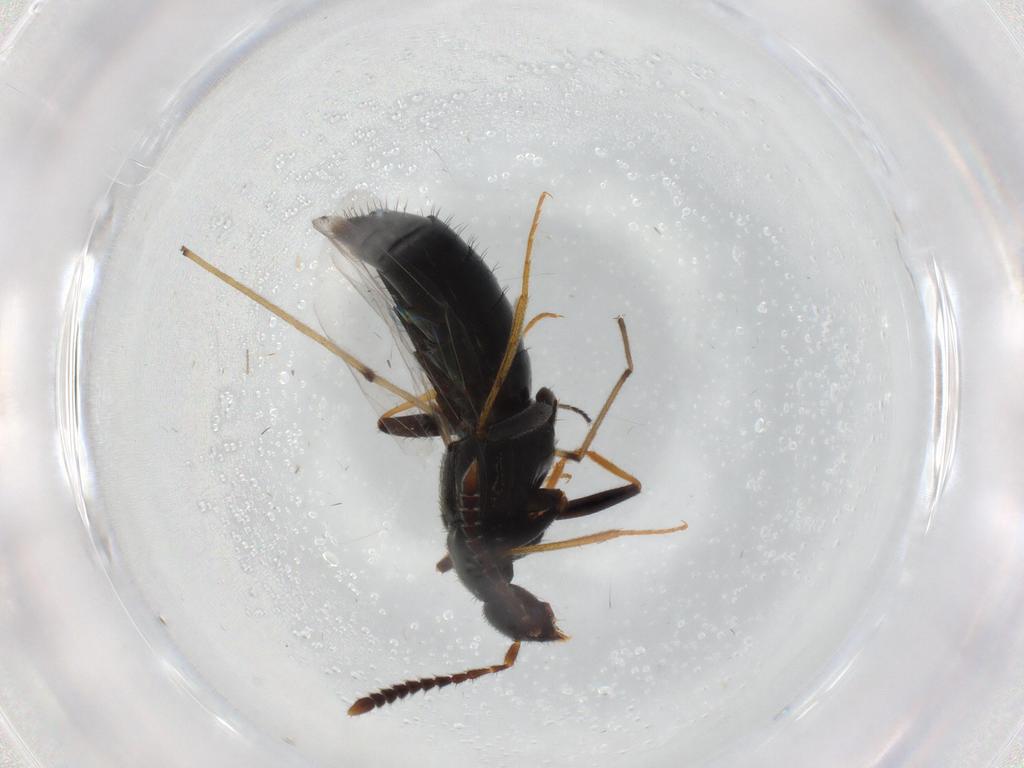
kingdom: Animalia
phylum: Arthropoda
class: Insecta
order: Coleoptera
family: Staphylinidae
